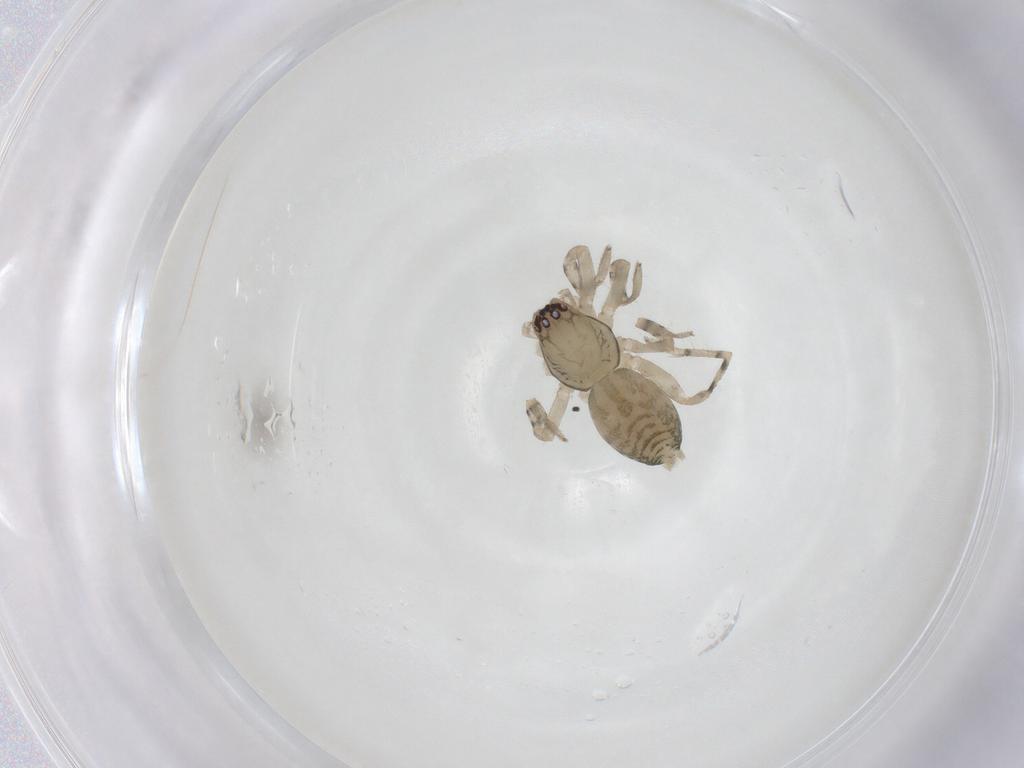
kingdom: Animalia
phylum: Arthropoda
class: Arachnida
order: Araneae
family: Clubionidae
